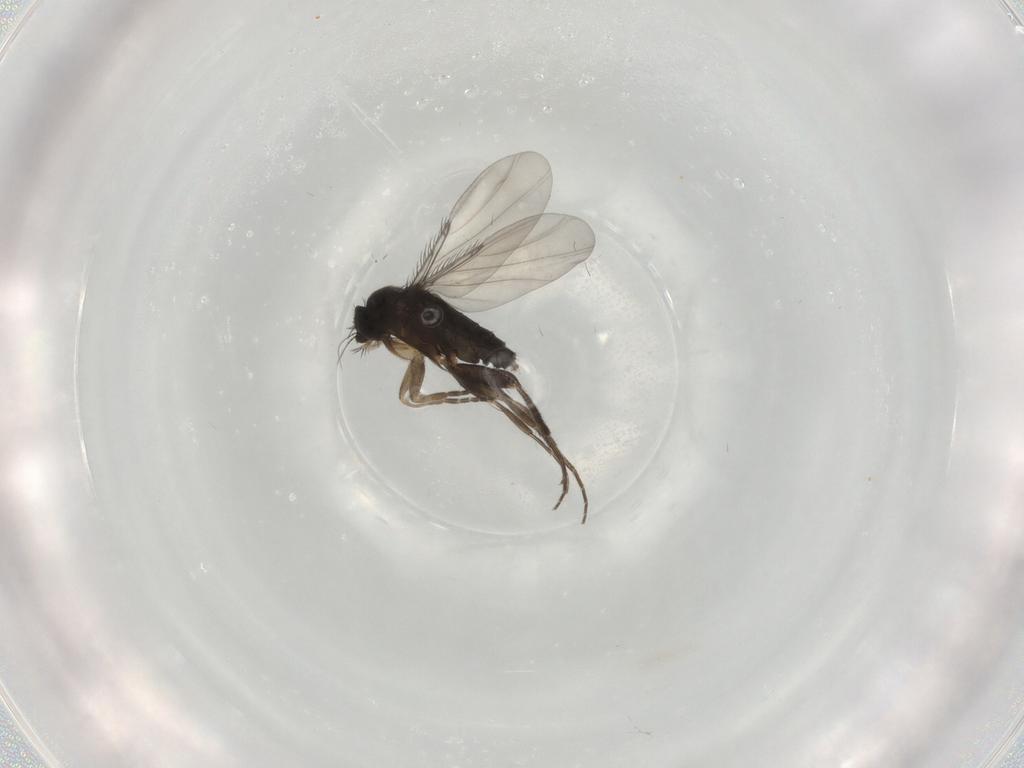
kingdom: Animalia
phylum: Arthropoda
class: Insecta
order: Diptera
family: Phoridae
